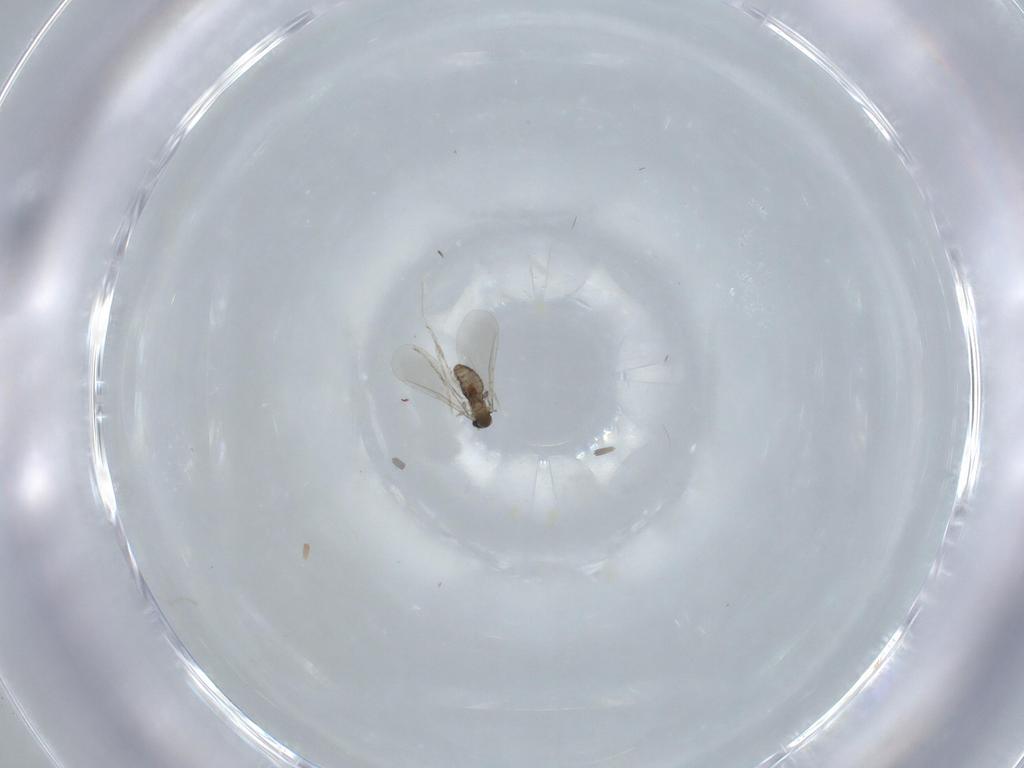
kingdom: Animalia
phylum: Arthropoda
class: Insecta
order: Diptera
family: Cecidomyiidae
